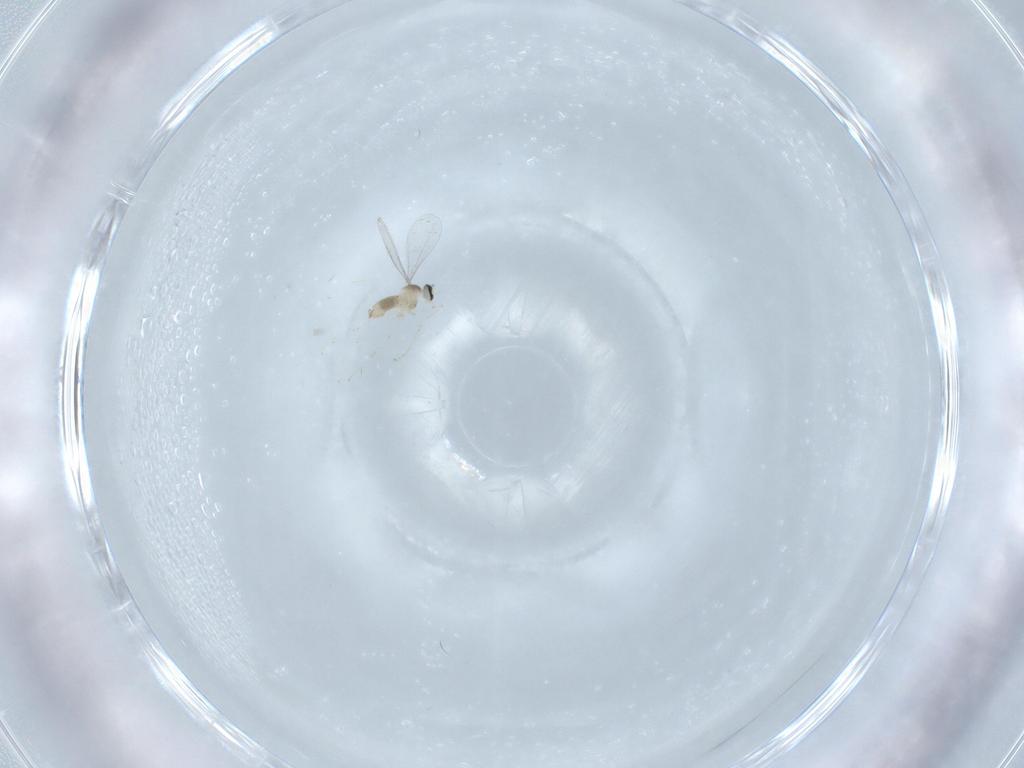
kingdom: Animalia
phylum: Arthropoda
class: Insecta
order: Diptera
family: Cecidomyiidae
